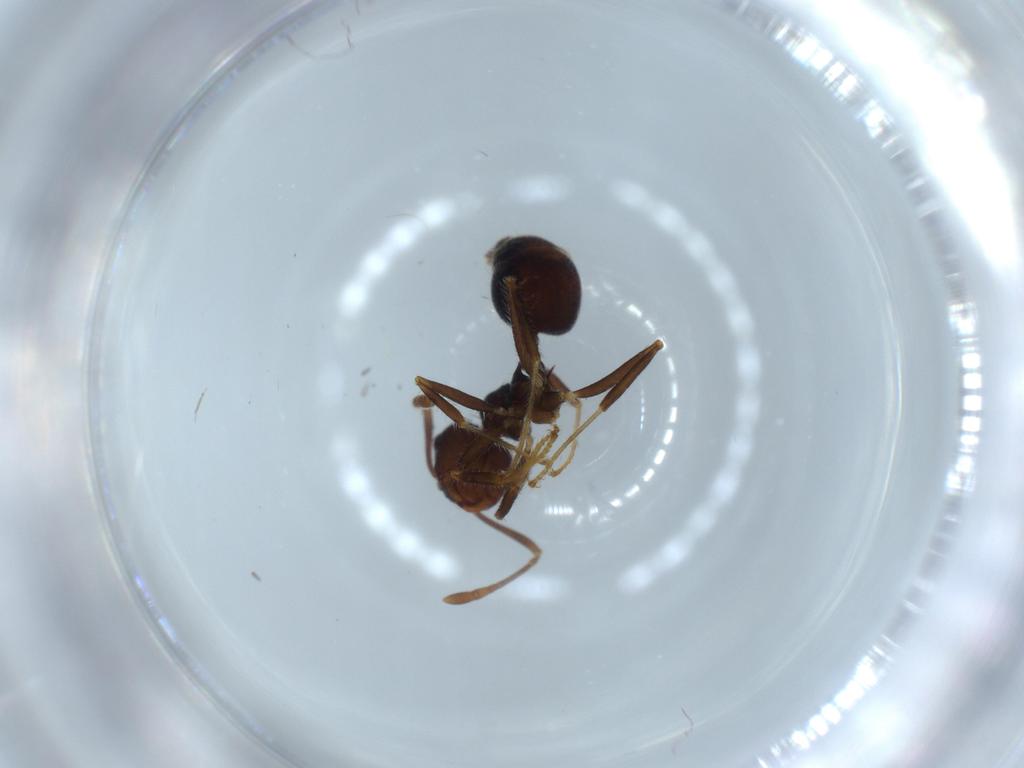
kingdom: Animalia
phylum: Arthropoda
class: Insecta
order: Hymenoptera
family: Formicidae
